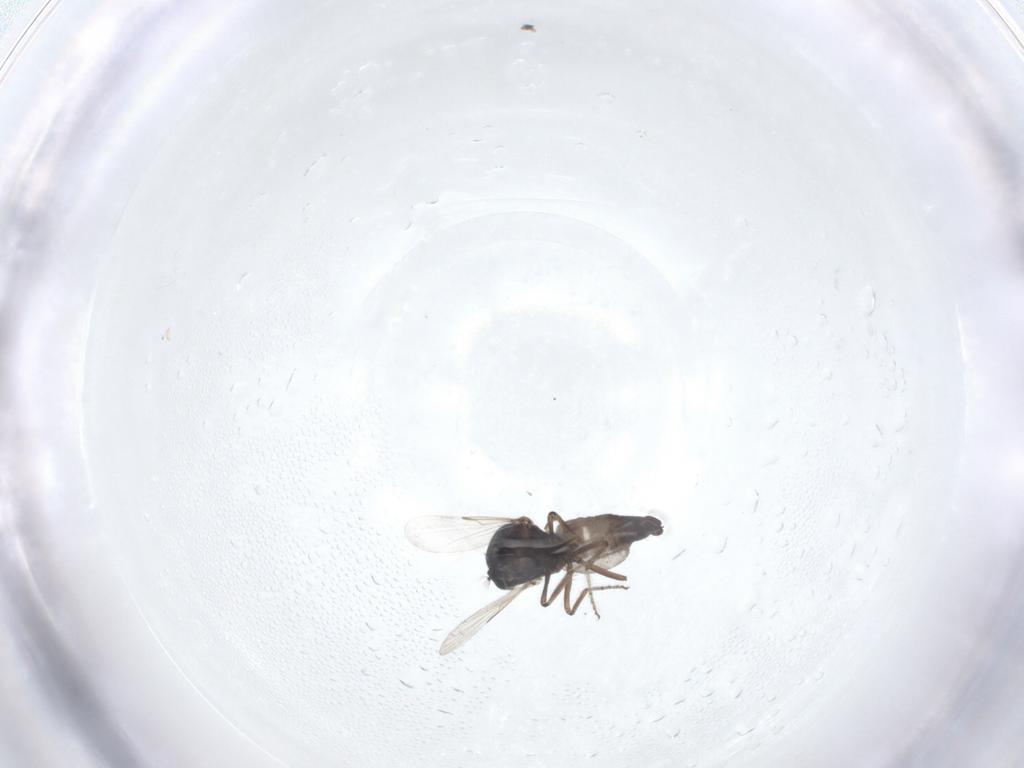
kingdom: Animalia
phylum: Arthropoda
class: Insecta
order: Diptera
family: Ceratopogonidae
